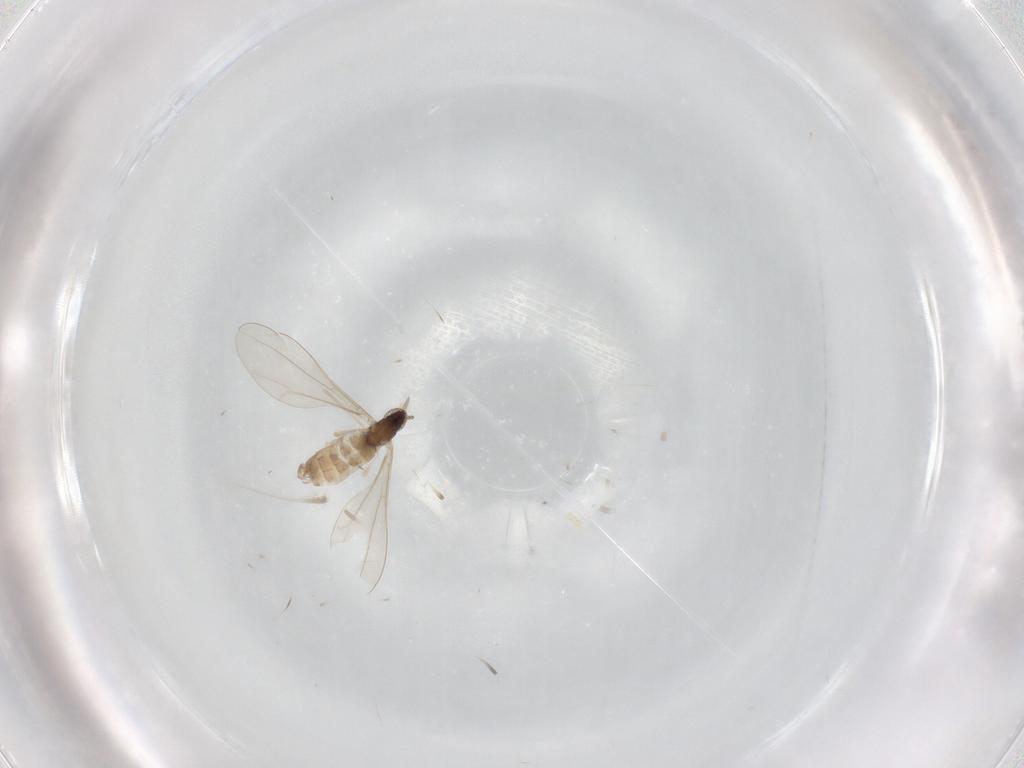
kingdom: Animalia
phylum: Arthropoda
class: Insecta
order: Diptera
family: Cecidomyiidae
